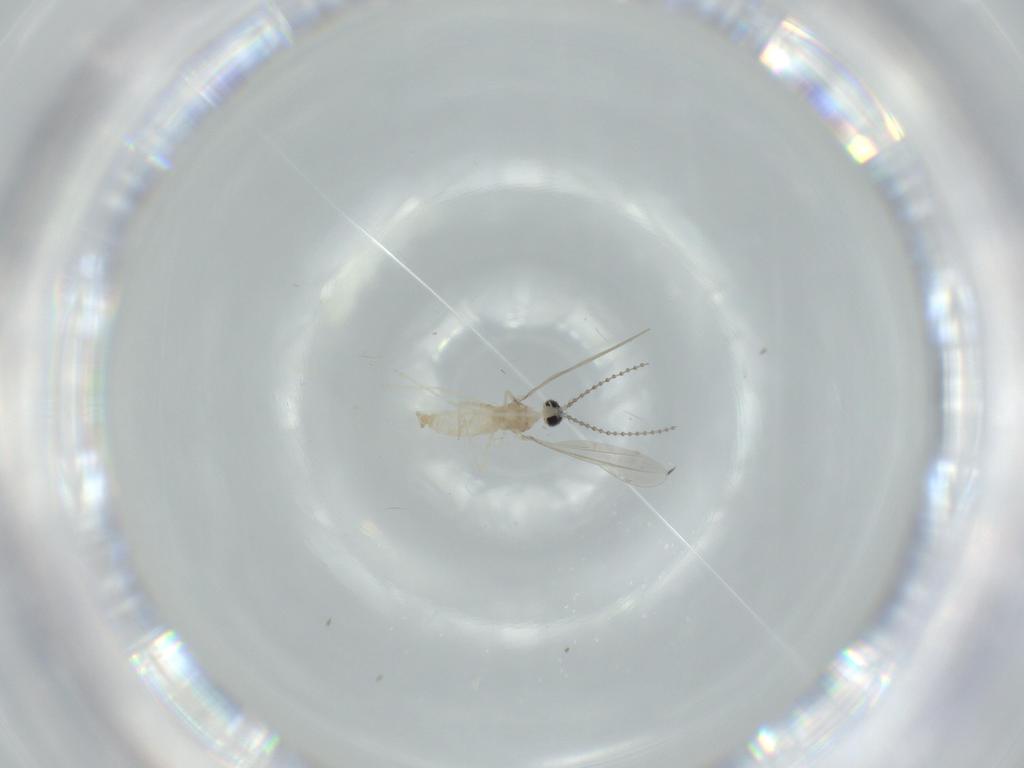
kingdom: Animalia
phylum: Arthropoda
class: Insecta
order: Diptera
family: Cecidomyiidae
